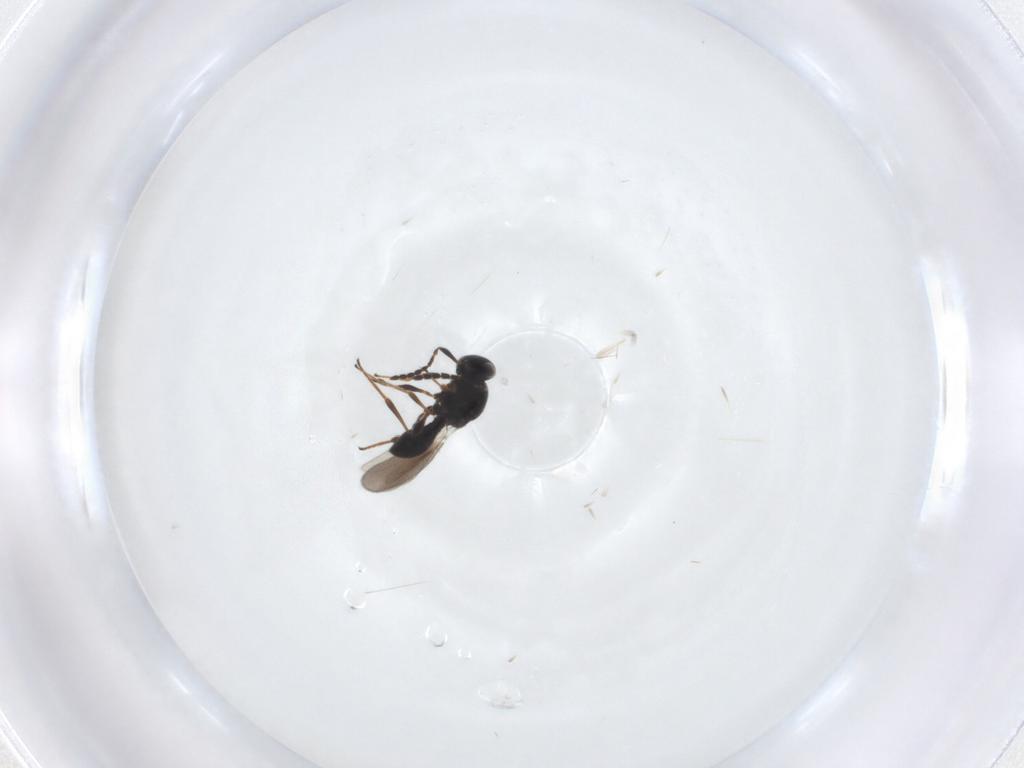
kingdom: Animalia
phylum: Arthropoda
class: Insecta
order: Hymenoptera
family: Platygastridae
